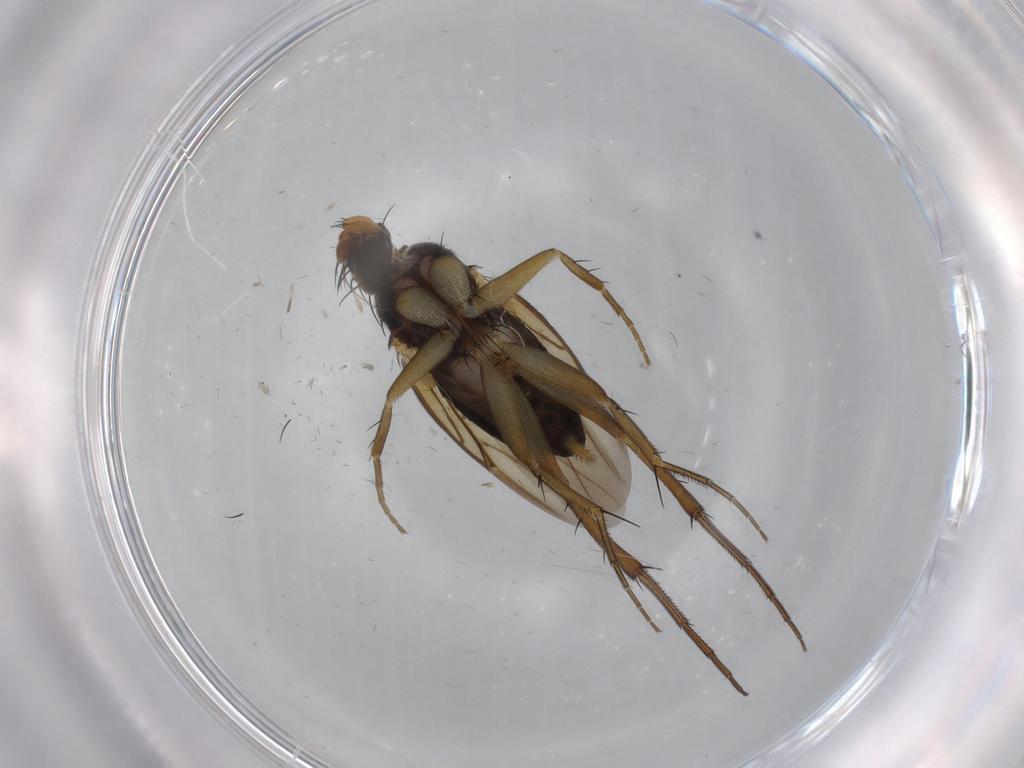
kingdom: Animalia
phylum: Arthropoda
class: Insecta
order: Diptera
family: Phoridae
